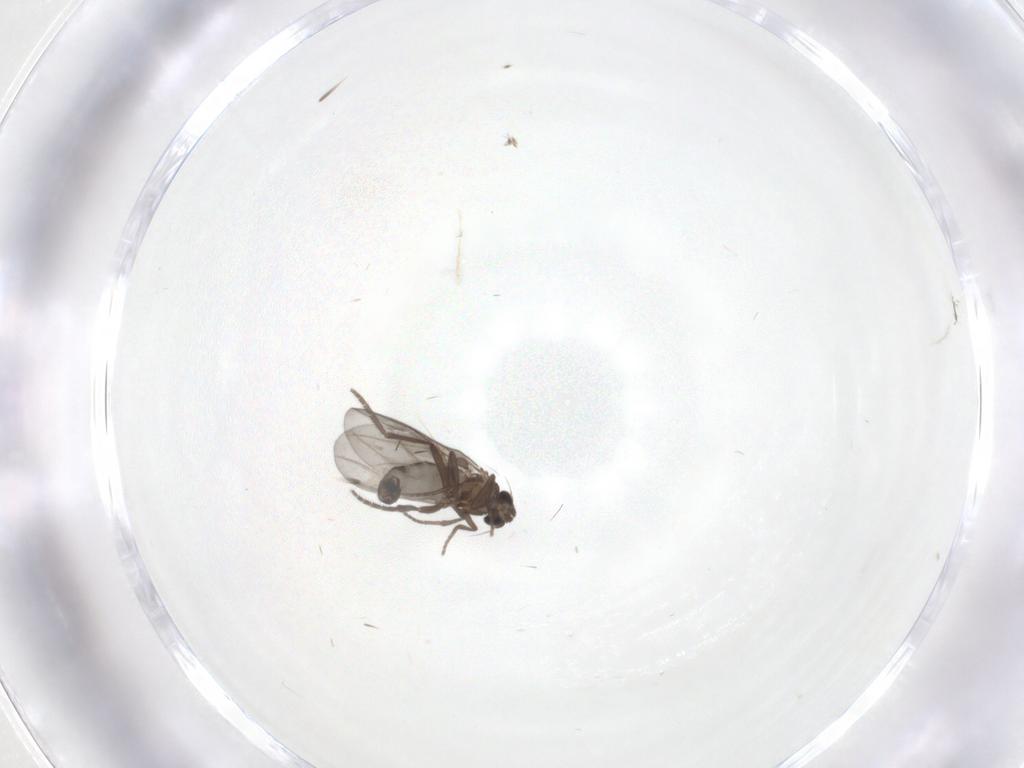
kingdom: Animalia
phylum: Arthropoda
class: Insecta
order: Diptera
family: Phoridae
